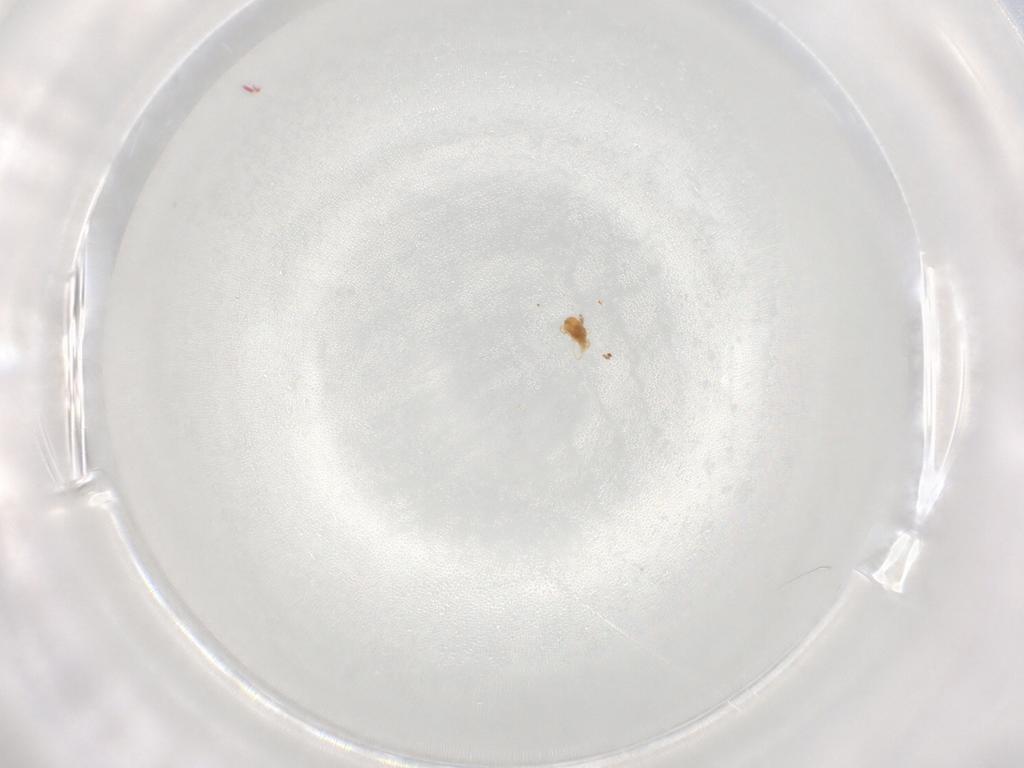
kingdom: Animalia
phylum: Arthropoda
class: Arachnida
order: Trombidiformes
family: Eupodidae
